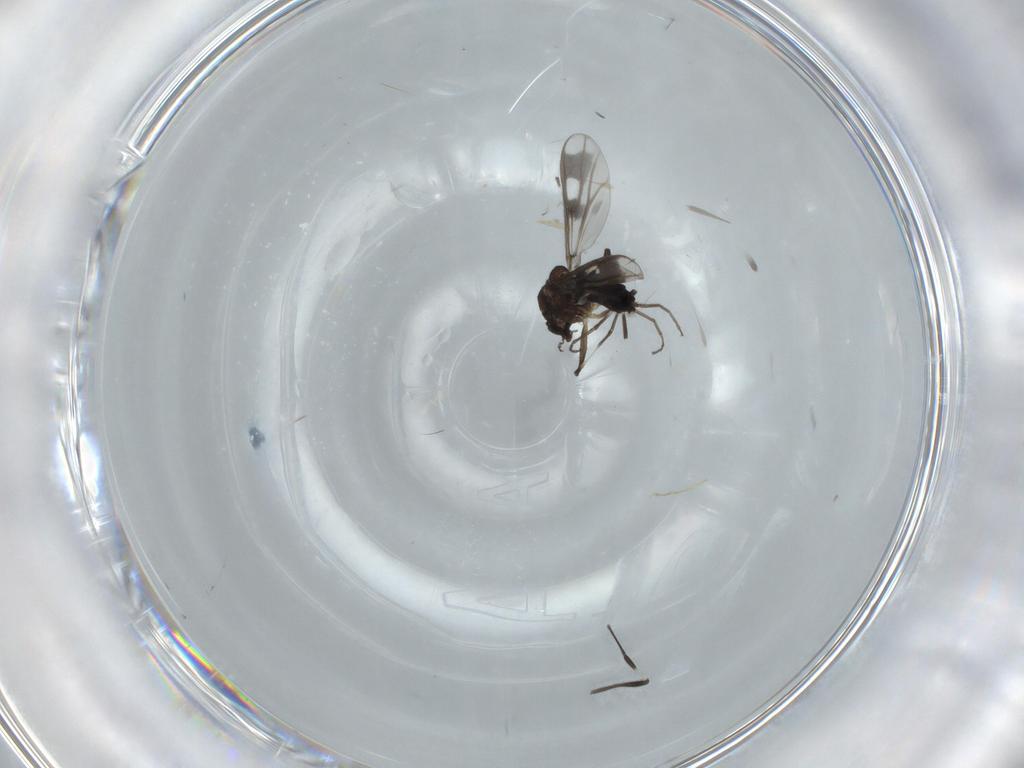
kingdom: Animalia
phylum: Arthropoda
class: Insecta
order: Diptera
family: Chironomidae
